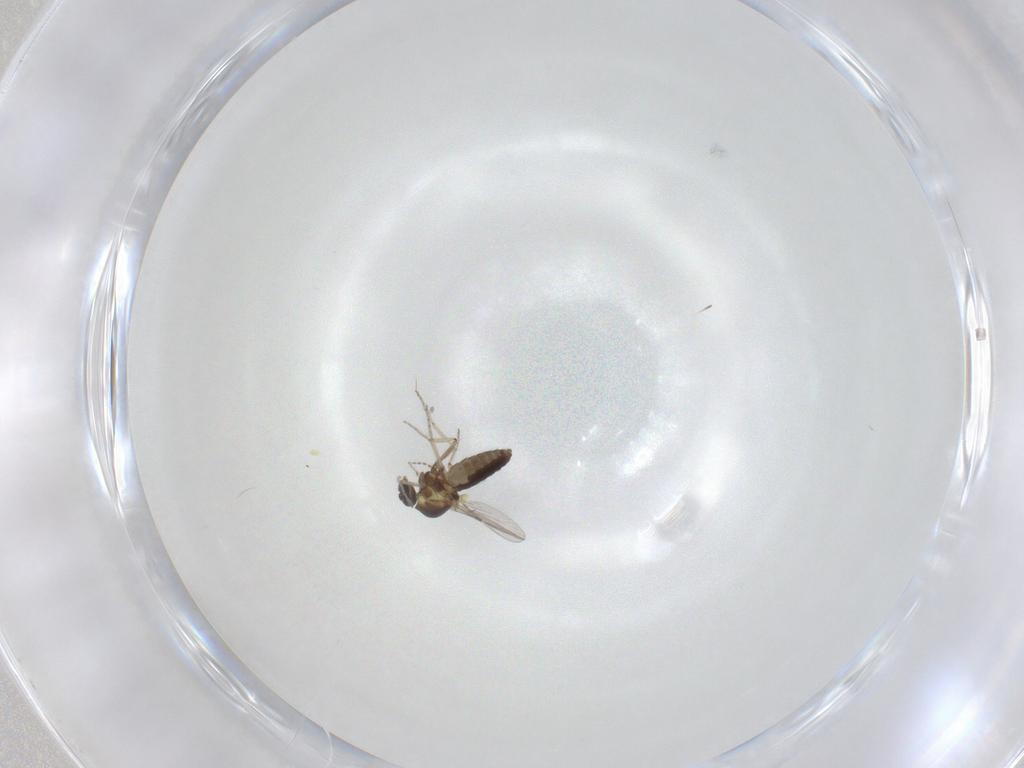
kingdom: Animalia
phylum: Arthropoda
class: Insecta
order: Diptera
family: Ceratopogonidae
